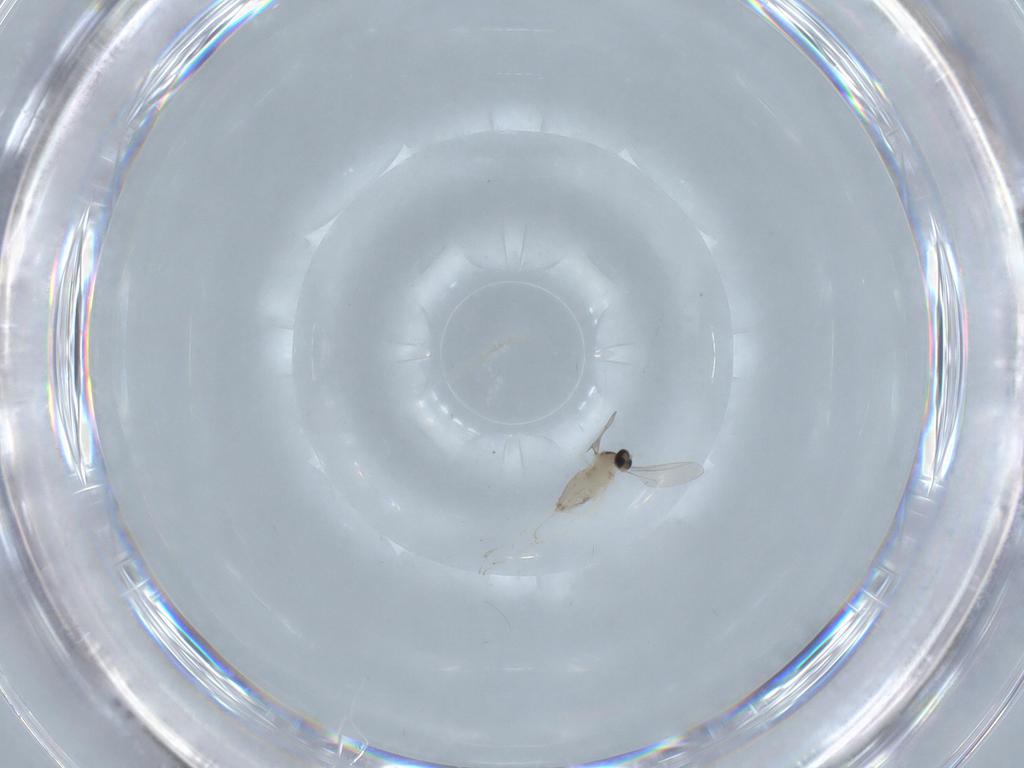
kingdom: Animalia
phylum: Arthropoda
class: Insecta
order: Diptera
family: Cecidomyiidae
